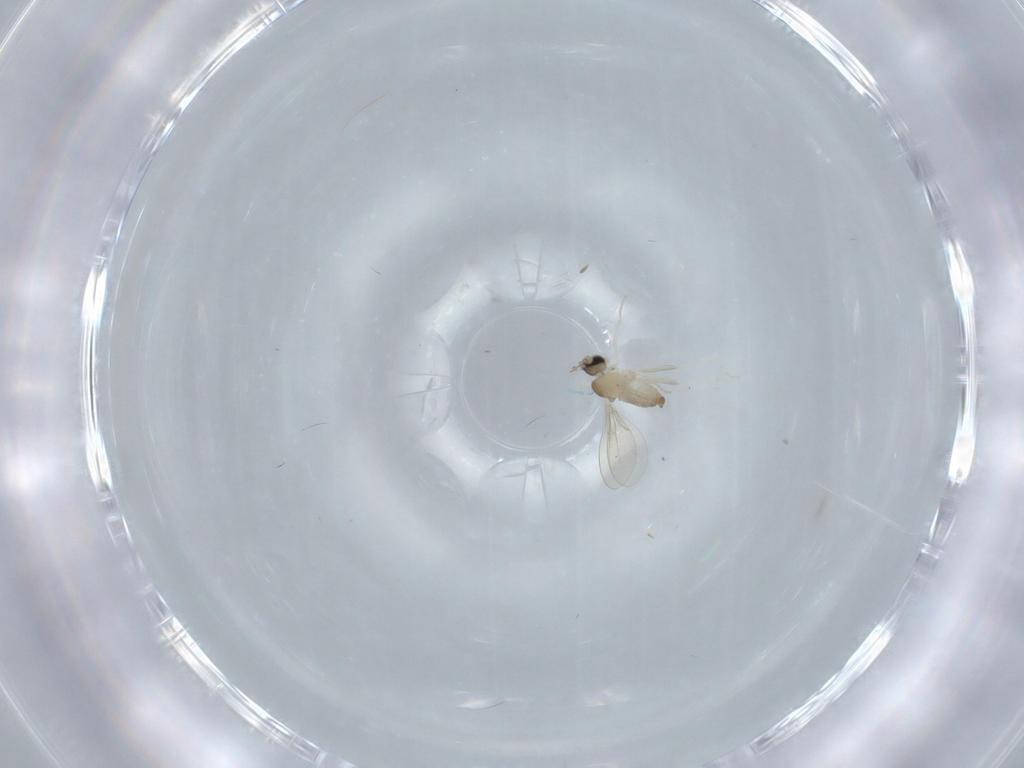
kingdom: Animalia
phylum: Arthropoda
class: Insecta
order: Diptera
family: Cecidomyiidae
